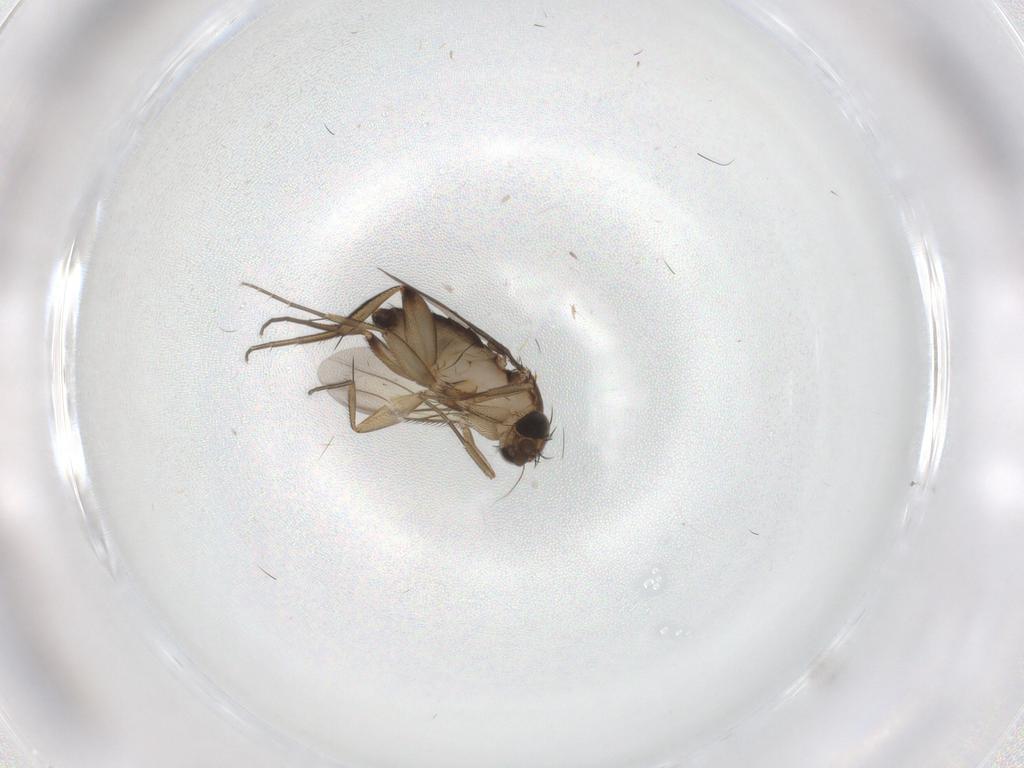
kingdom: Animalia
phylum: Arthropoda
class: Insecta
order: Diptera
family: Phoridae
